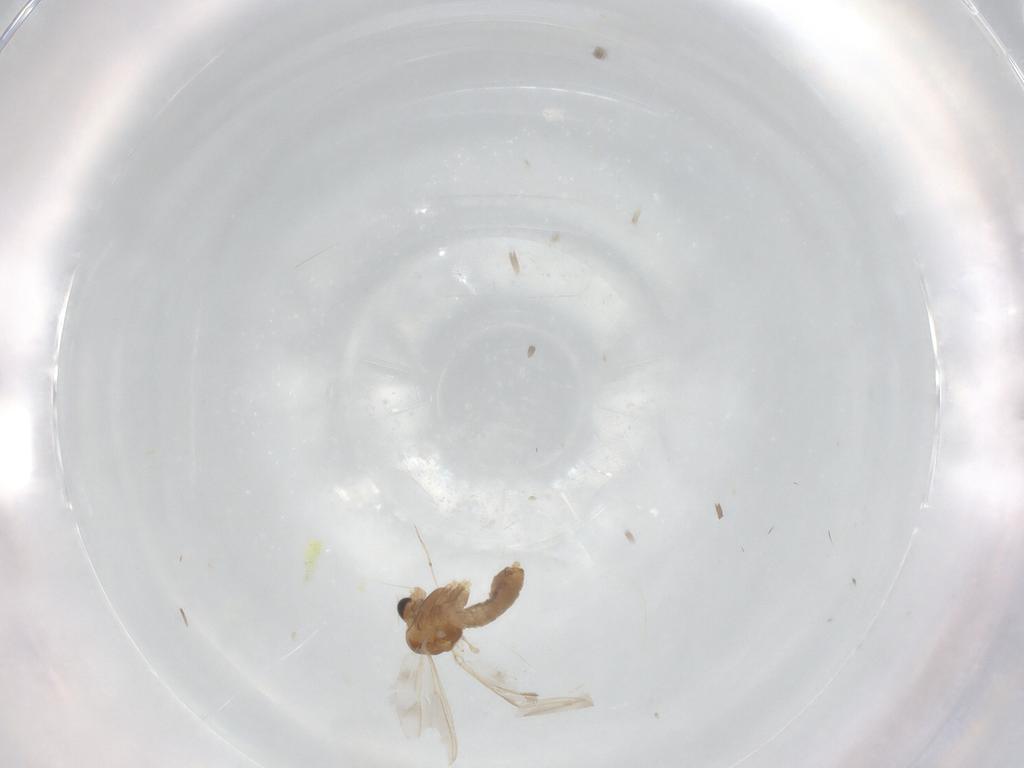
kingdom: Animalia
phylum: Arthropoda
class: Insecta
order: Diptera
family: Chironomidae
